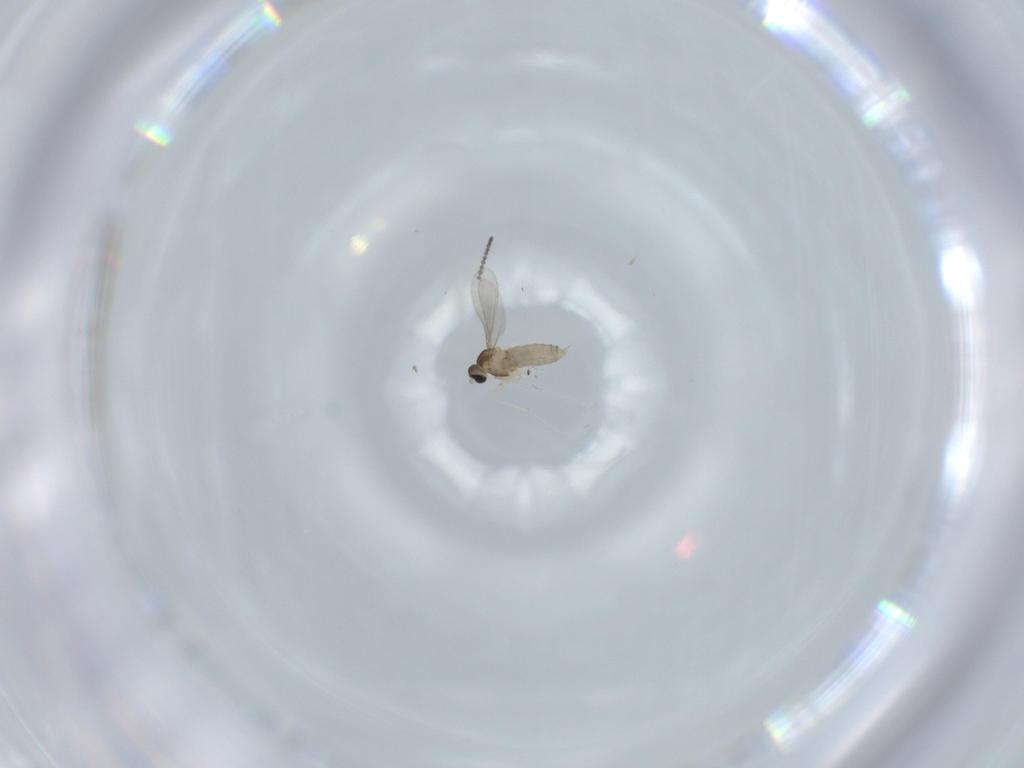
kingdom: Animalia
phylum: Arthropoda
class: Insecta
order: Diptera
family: Cecidomyiidae
